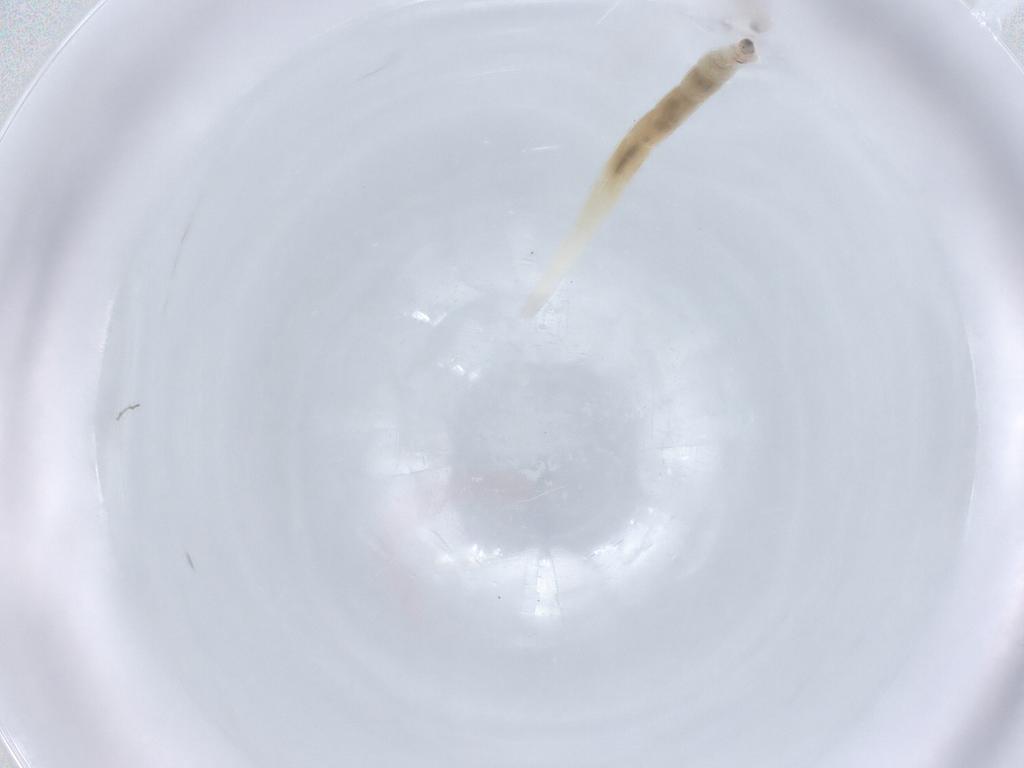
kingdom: Animalia
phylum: Arthropoda
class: Insecta
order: Diptera
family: Ceratopogonidae
